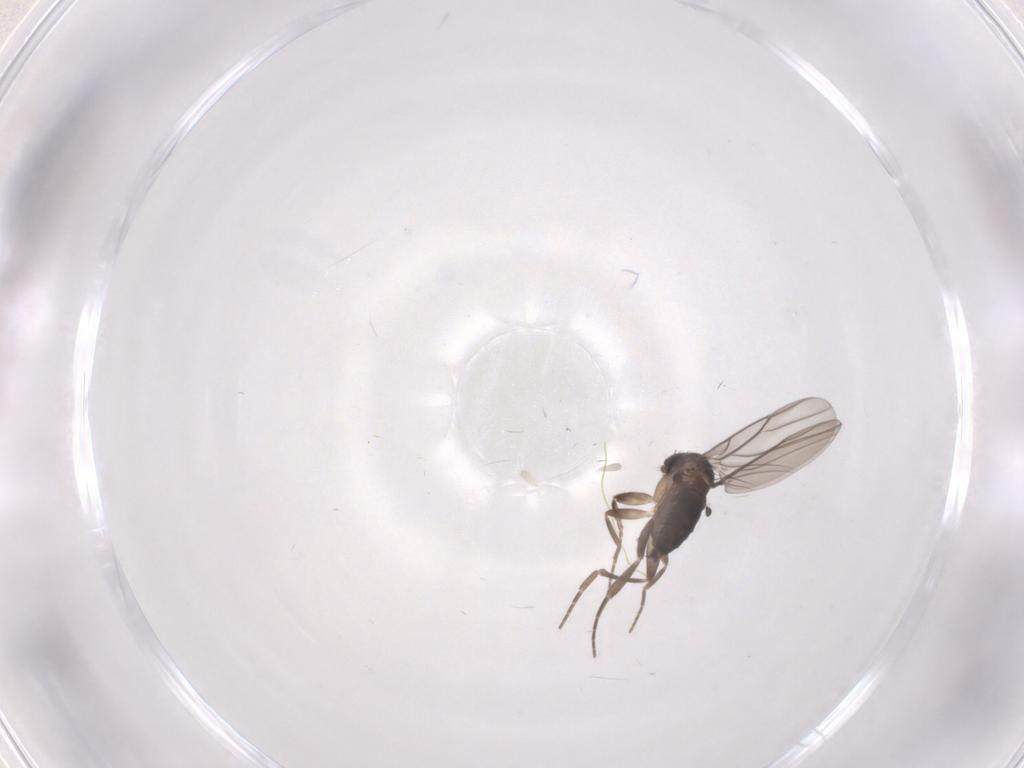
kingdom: Animalia
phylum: Arthropoda
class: Insecta
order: Diptera
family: Phoridae
